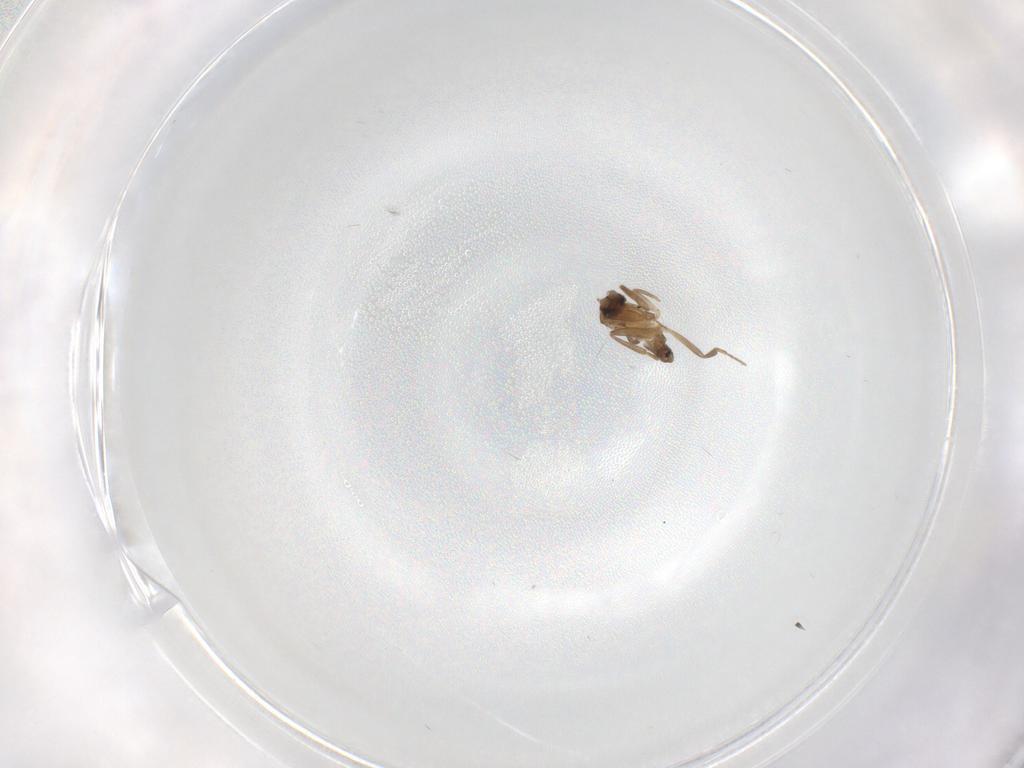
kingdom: Animalia
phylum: Arthropoda
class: Insecta
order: Diptera
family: Lauxaniidae
